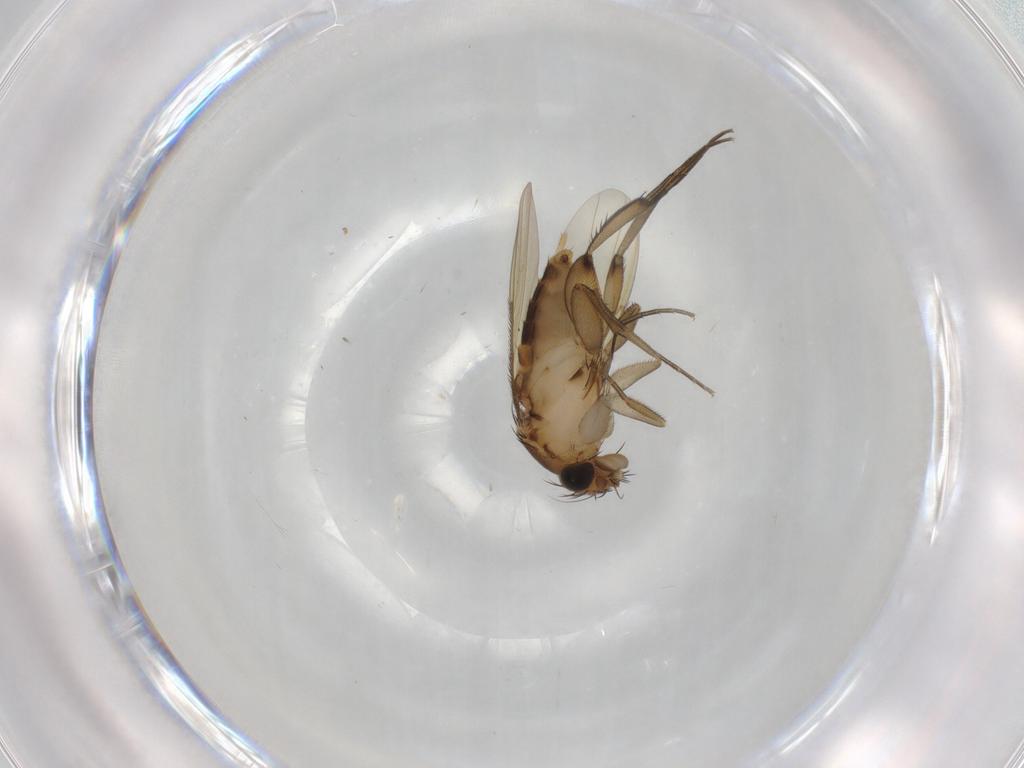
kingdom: Animalia
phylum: Arthropoda
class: Insecta
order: Diptera
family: Phoridae
